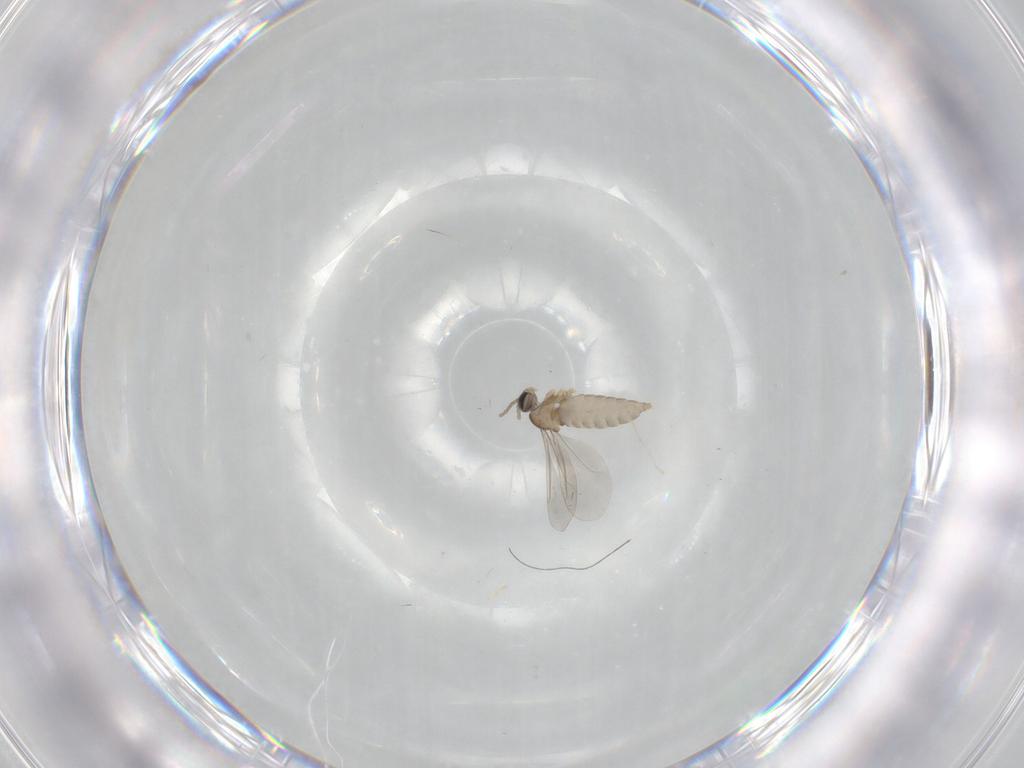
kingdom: Animalia
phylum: Arthropoda
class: Insecta
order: Diptera
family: Cecidomyiidae
